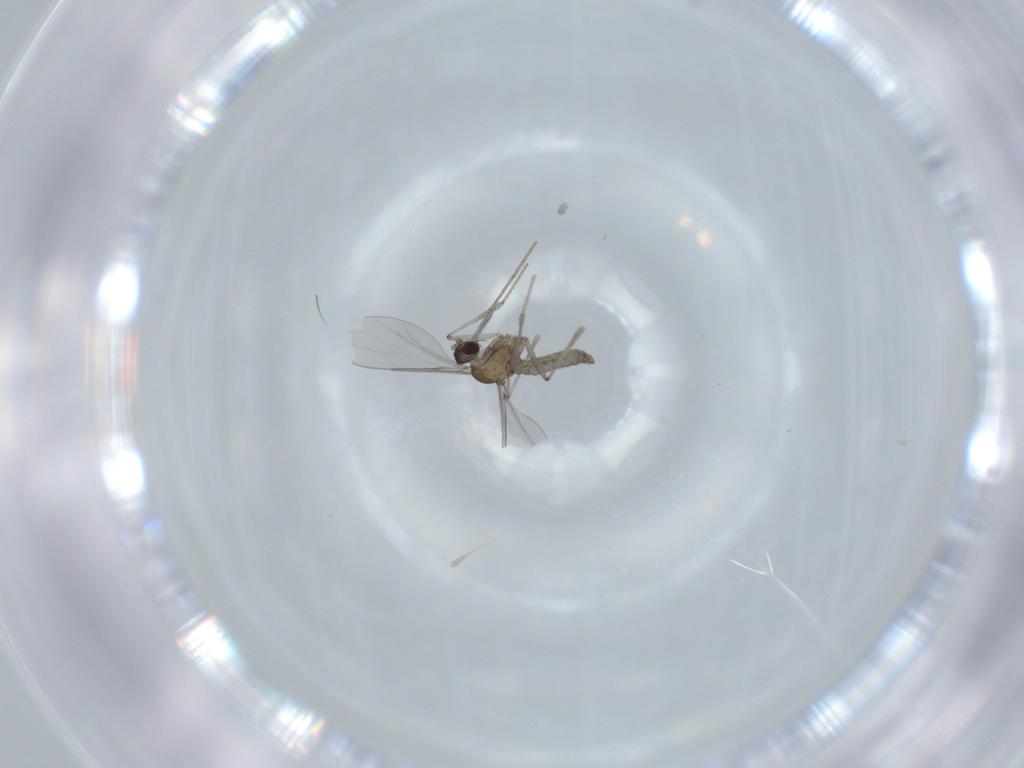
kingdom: Animalia
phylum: Arthropoda
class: Insecta
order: Diptera
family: Cecidomyiidae
